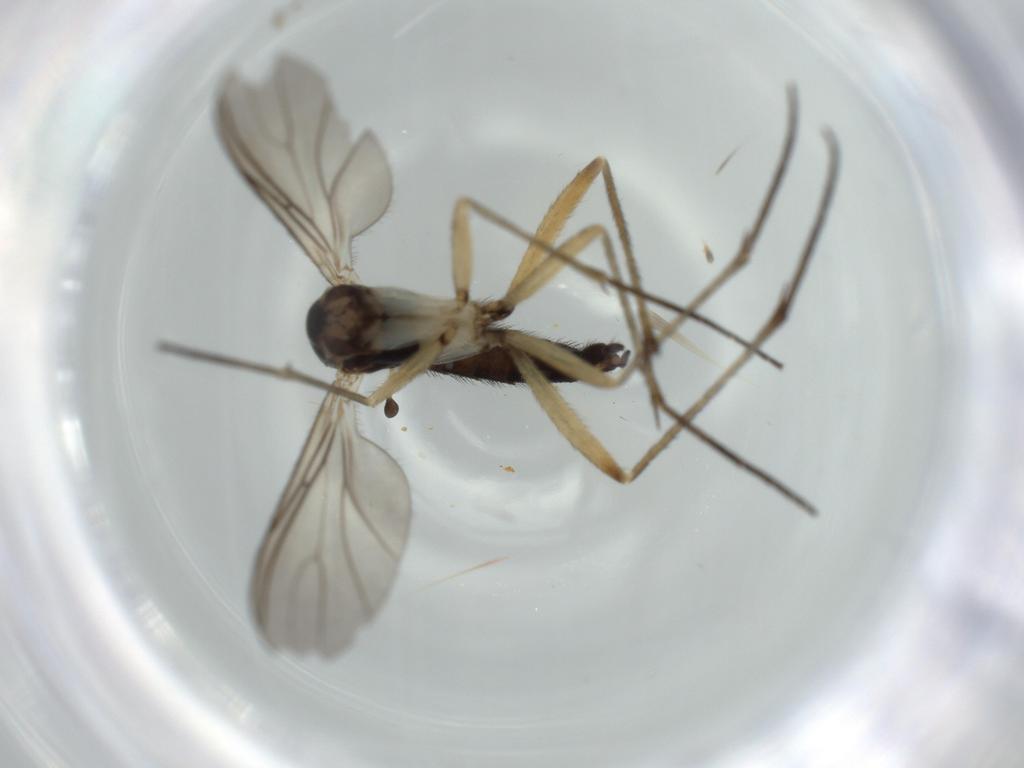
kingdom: Animalia
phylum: Arthropoda
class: Insecta
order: Diptera
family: Sciaridae
